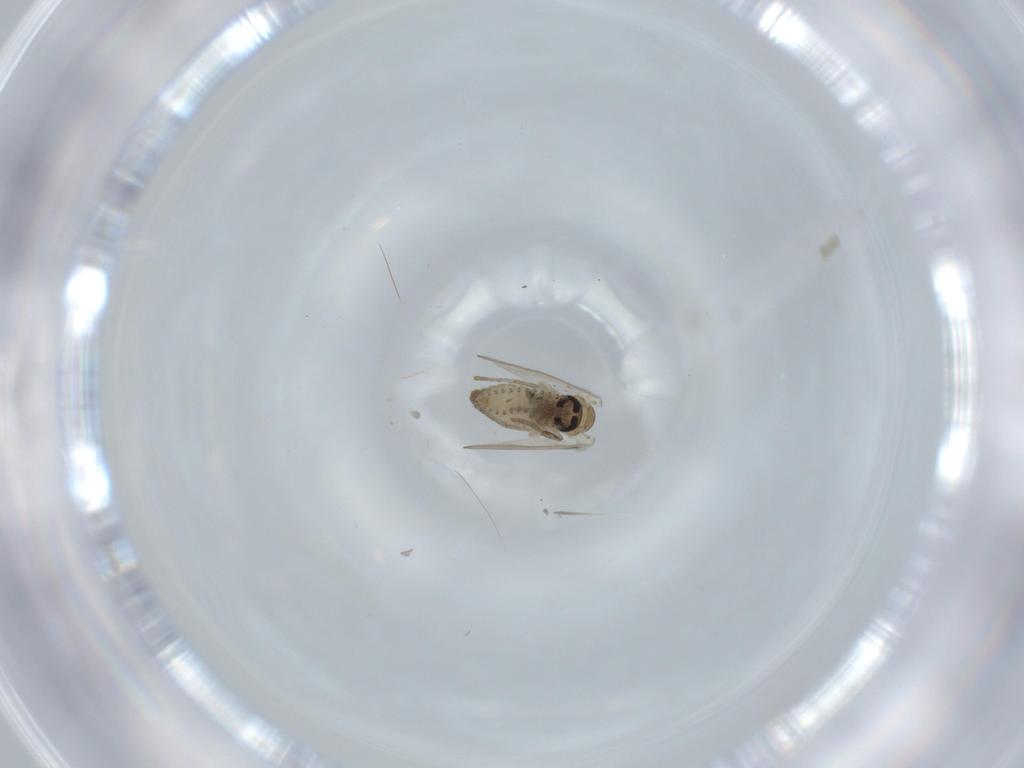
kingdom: Animalia
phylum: Arthropoda
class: Insecta
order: Diptera
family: Psychodidae
